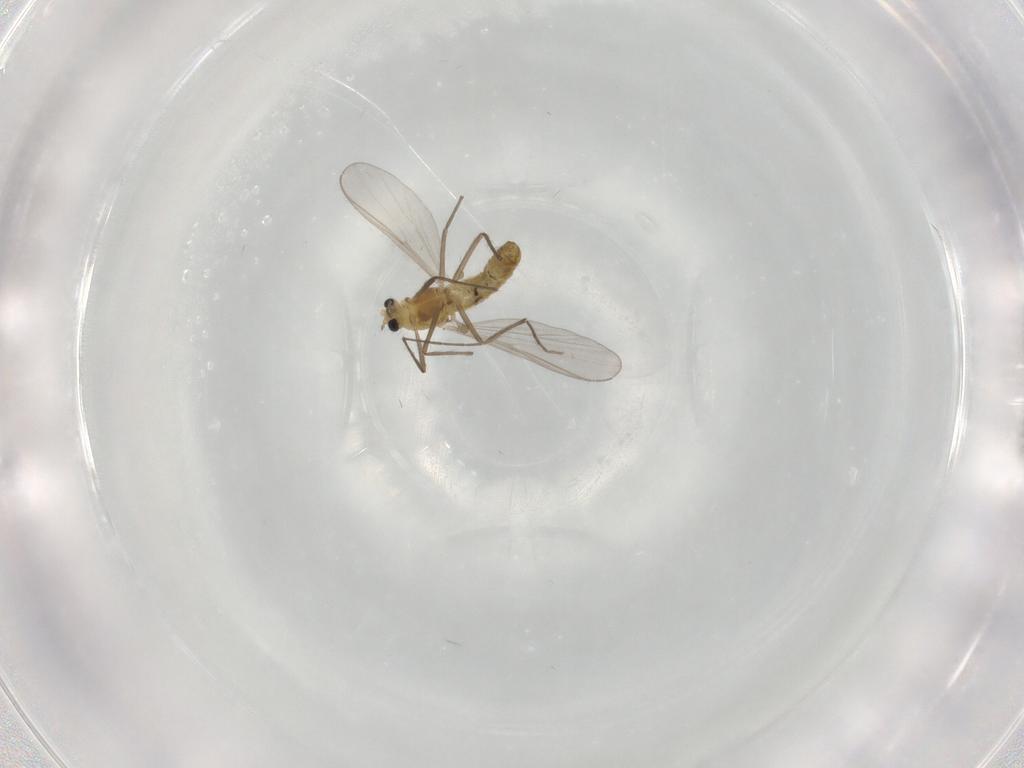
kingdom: Animalia
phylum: Arthropoda
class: Insecta
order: Diptera
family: Chironomidae
